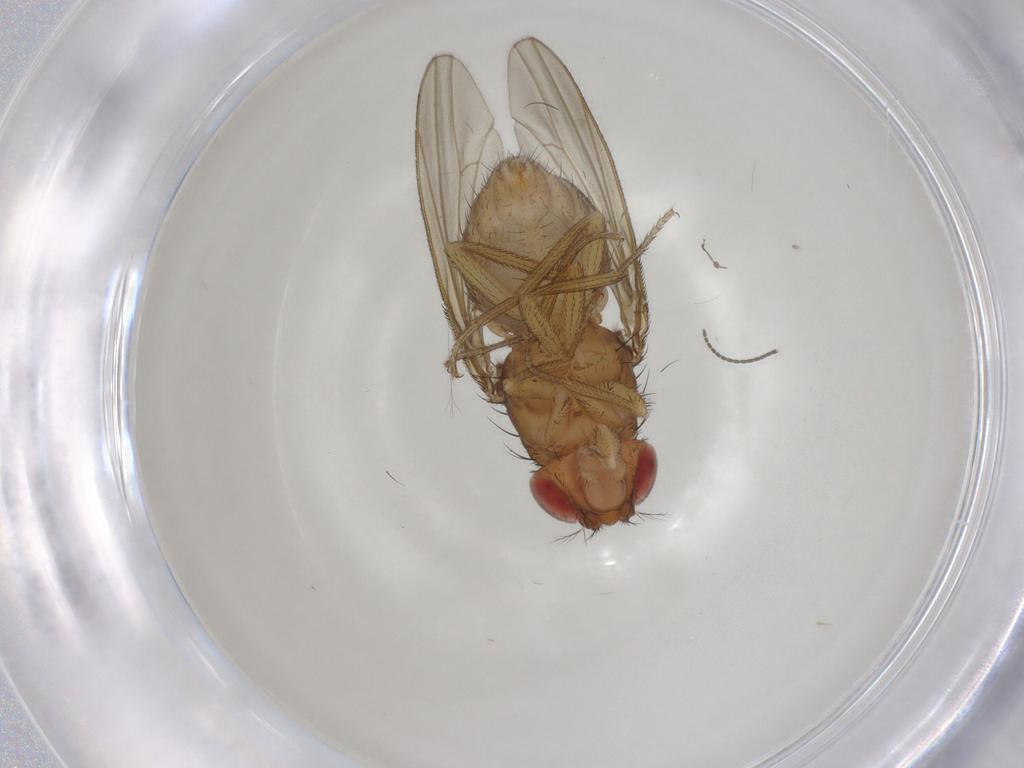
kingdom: Animalia
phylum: Arthropoda
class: Insecta
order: Diptera
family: Drosophilidae
